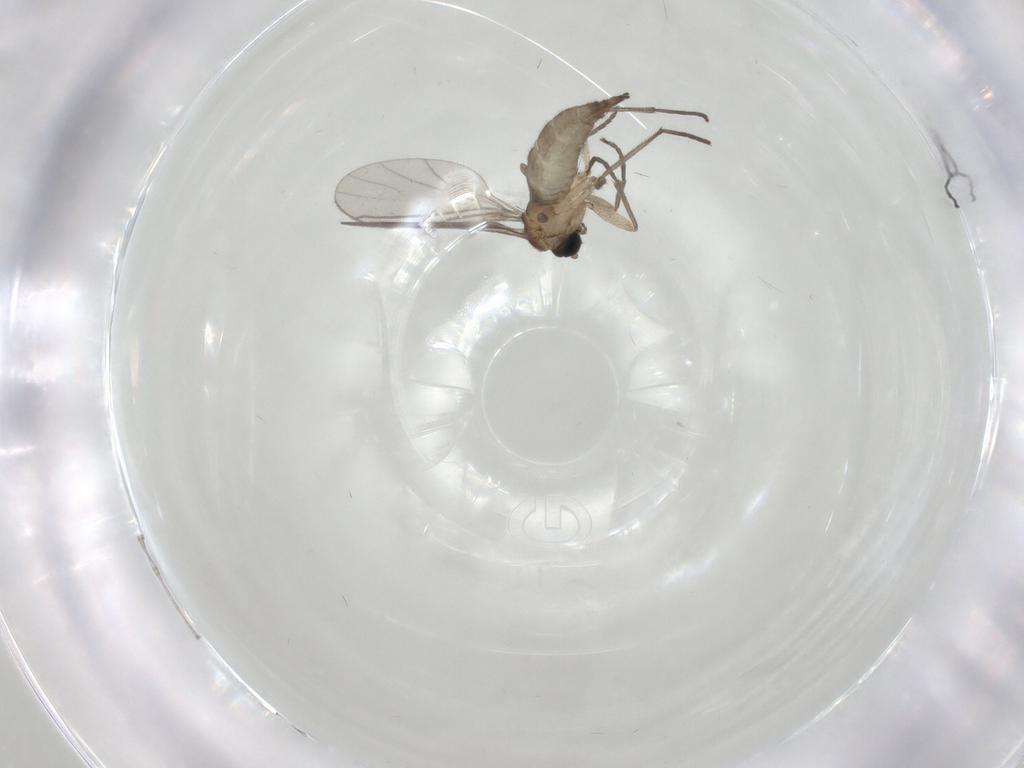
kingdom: Animalia
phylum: Arthropoda
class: Insecta
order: Diptera
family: Sciaridae
